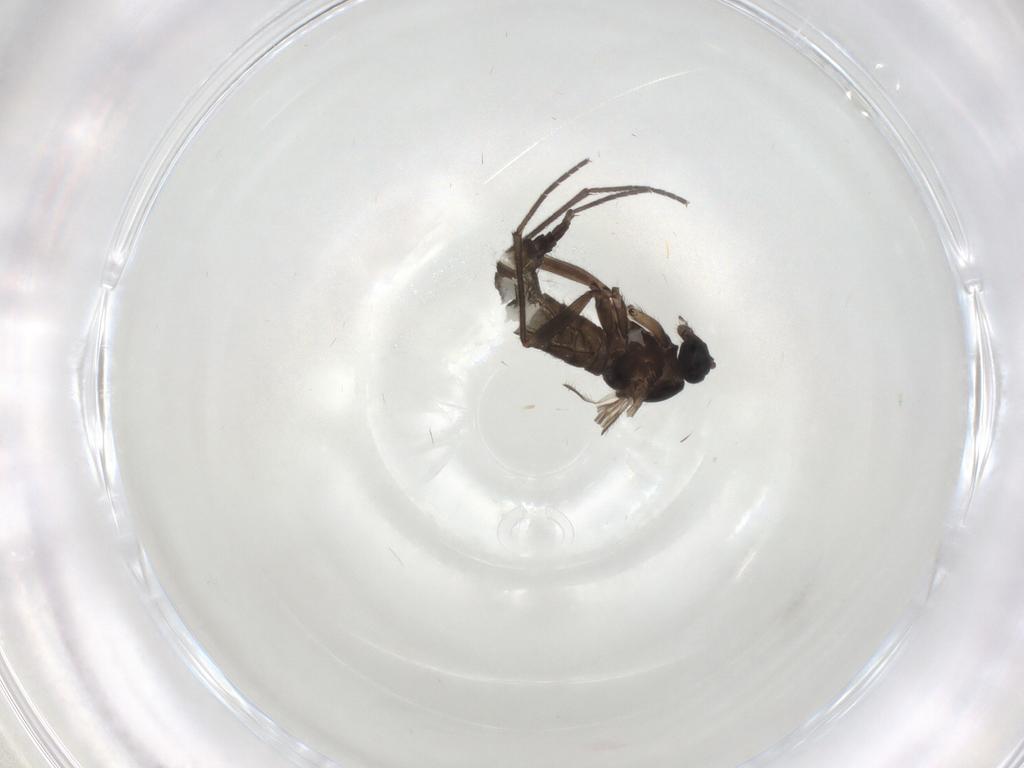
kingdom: Animalia
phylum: Arthropoda
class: Insecta
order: Diptera
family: Sciaridae
